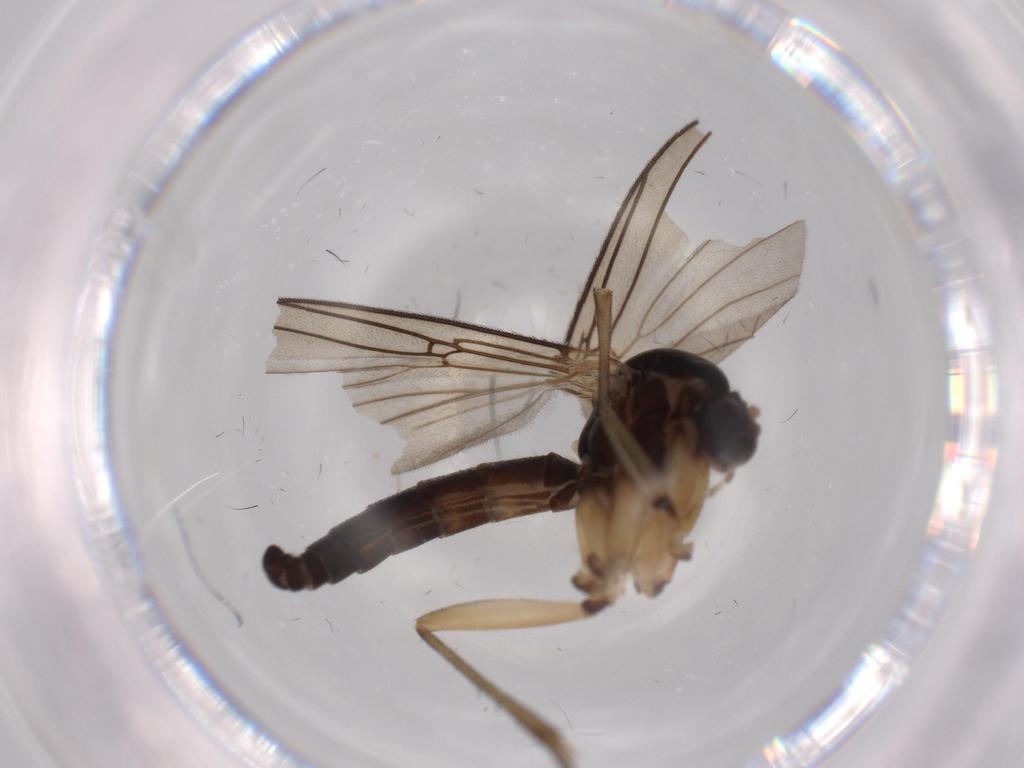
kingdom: Animalia
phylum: Arthropoda
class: Insecta
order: Diptera
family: Mycetophilidae
